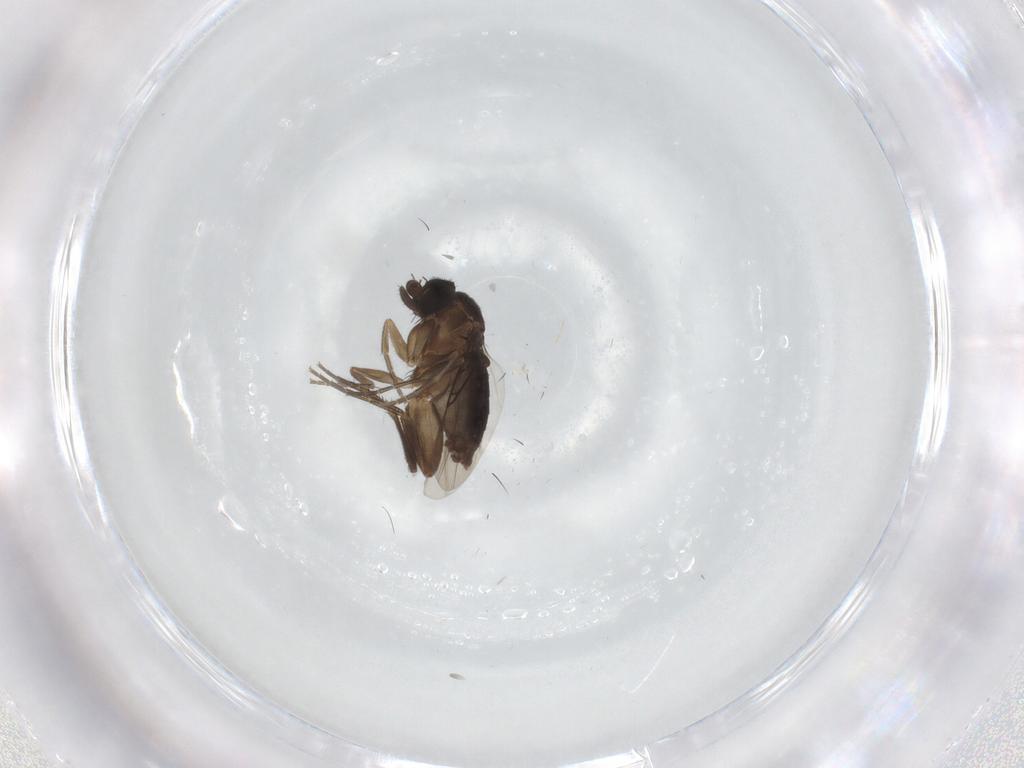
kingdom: Animalia
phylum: Arthropoda
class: Insecta
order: Diptera
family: Phoridae
